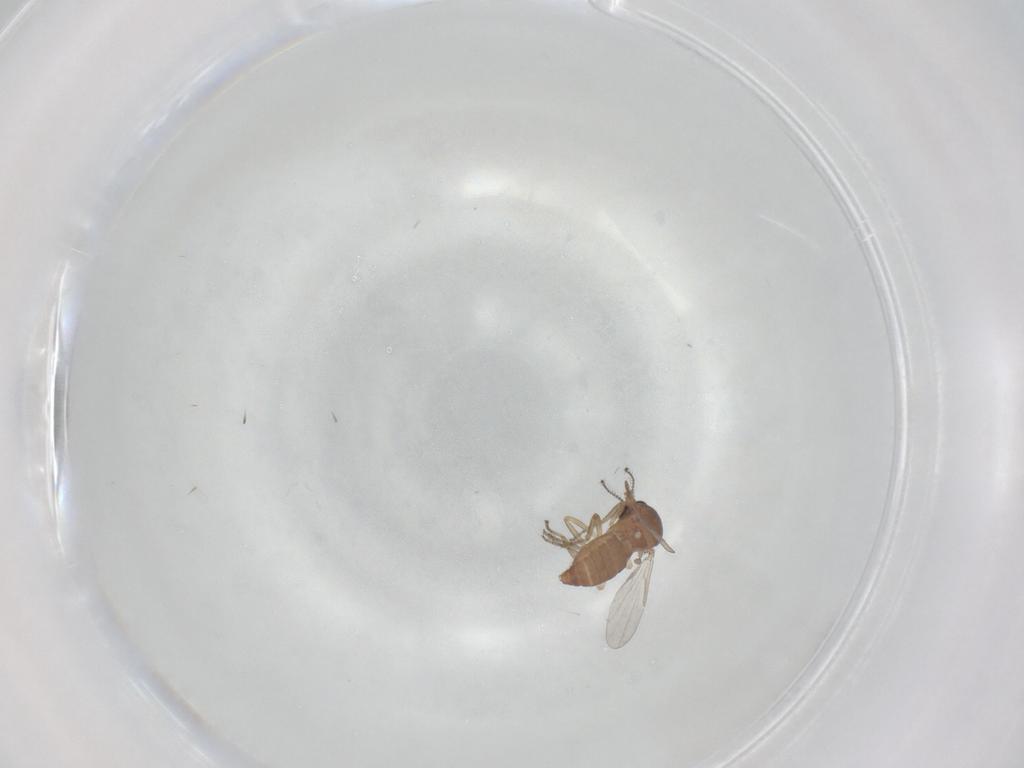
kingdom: Animalia
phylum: Arthropoda
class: Insecta
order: Diptera
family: Ceratopogonidae
